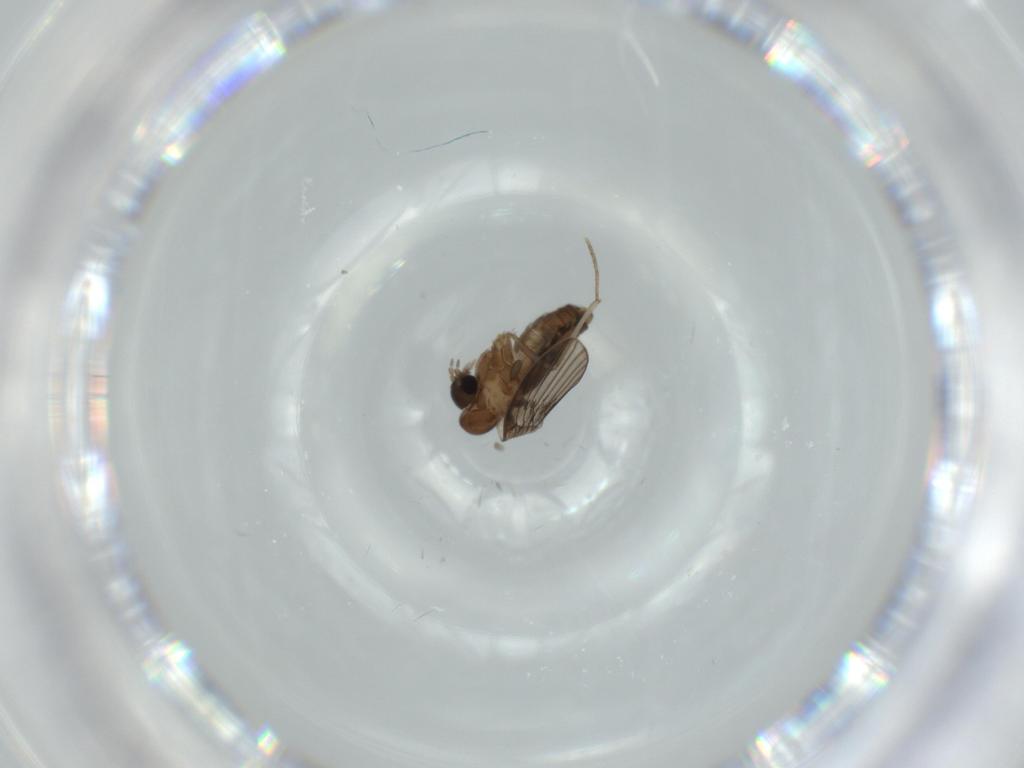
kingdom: Animalia
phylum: Arthropoda
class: Insecta
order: Diptera
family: Psychodidae
